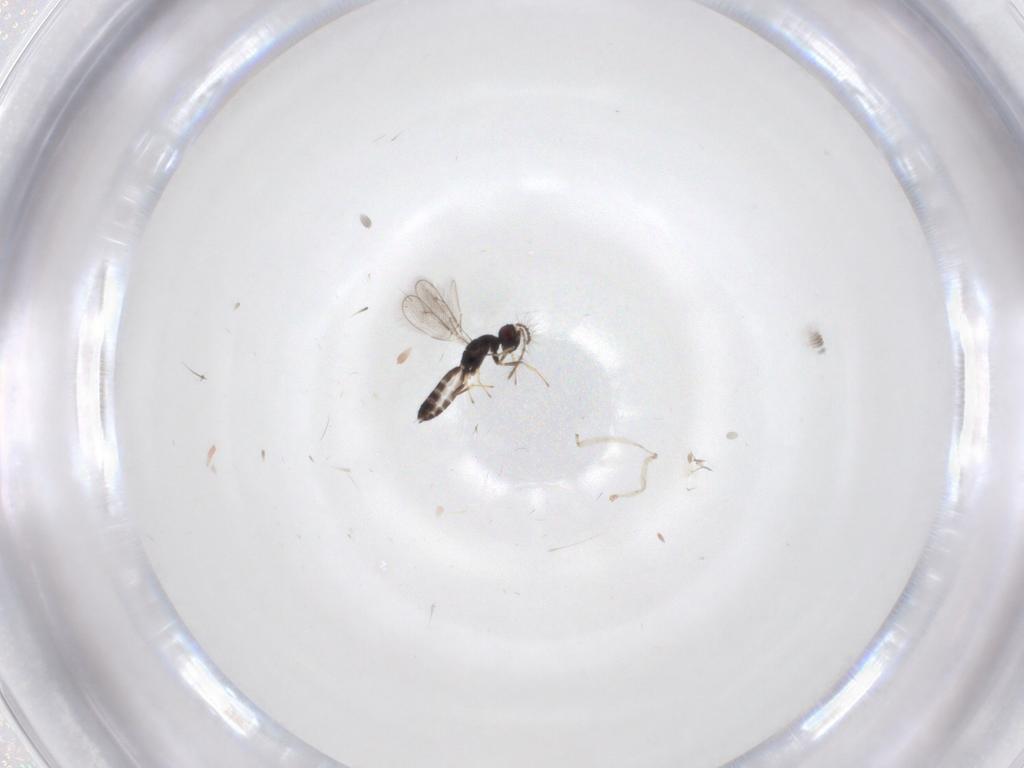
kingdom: Animalia
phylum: Arthropoda
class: Insecta
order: Hymenoptera
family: Pteromalidae
